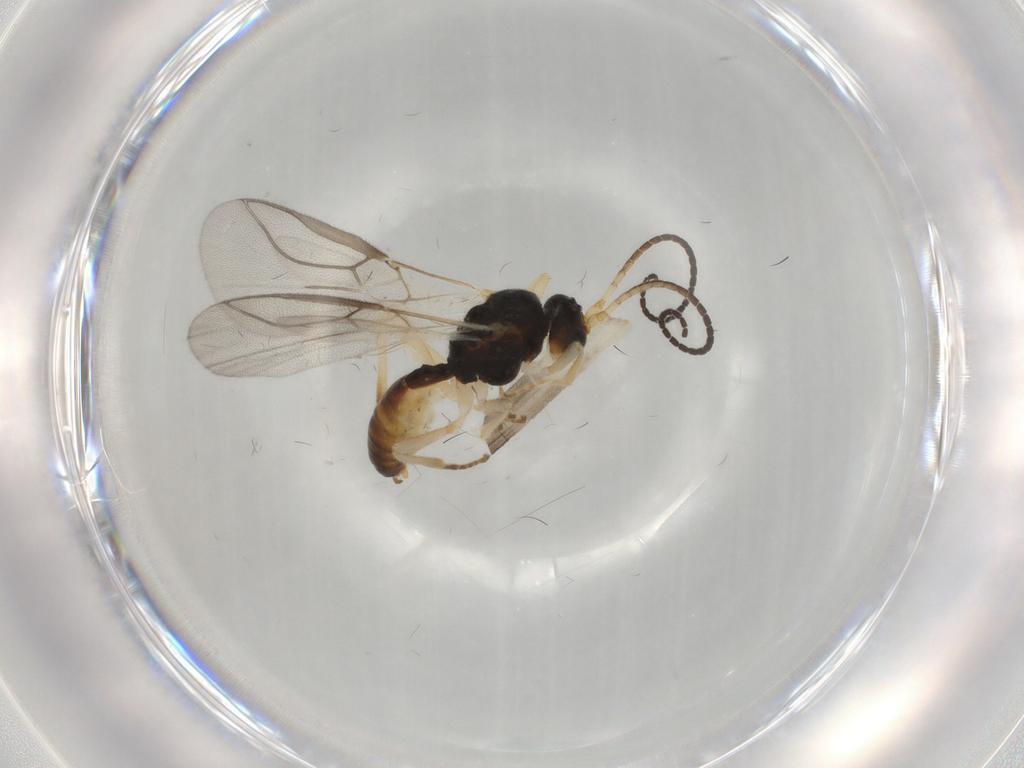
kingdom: Animalia
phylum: Arthropoda
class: Insecta
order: Hymenoptera
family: Braconidae
